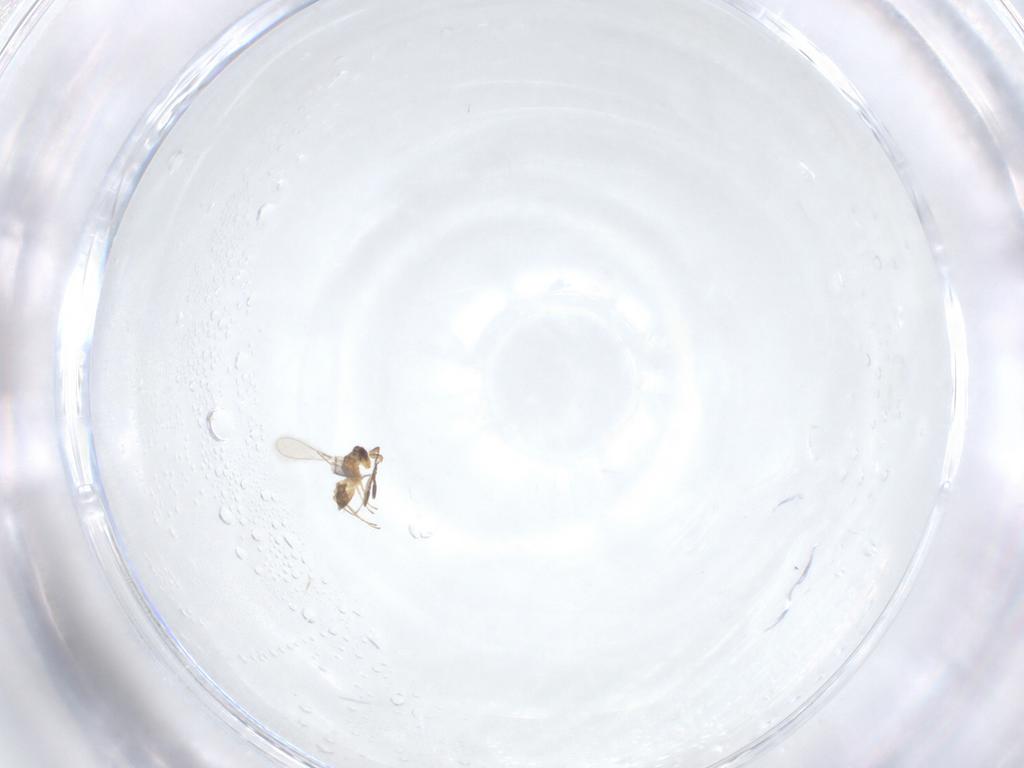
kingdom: Animalia
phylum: Arthropoda
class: Insecta
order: Hymenoptera
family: Mymaridae
